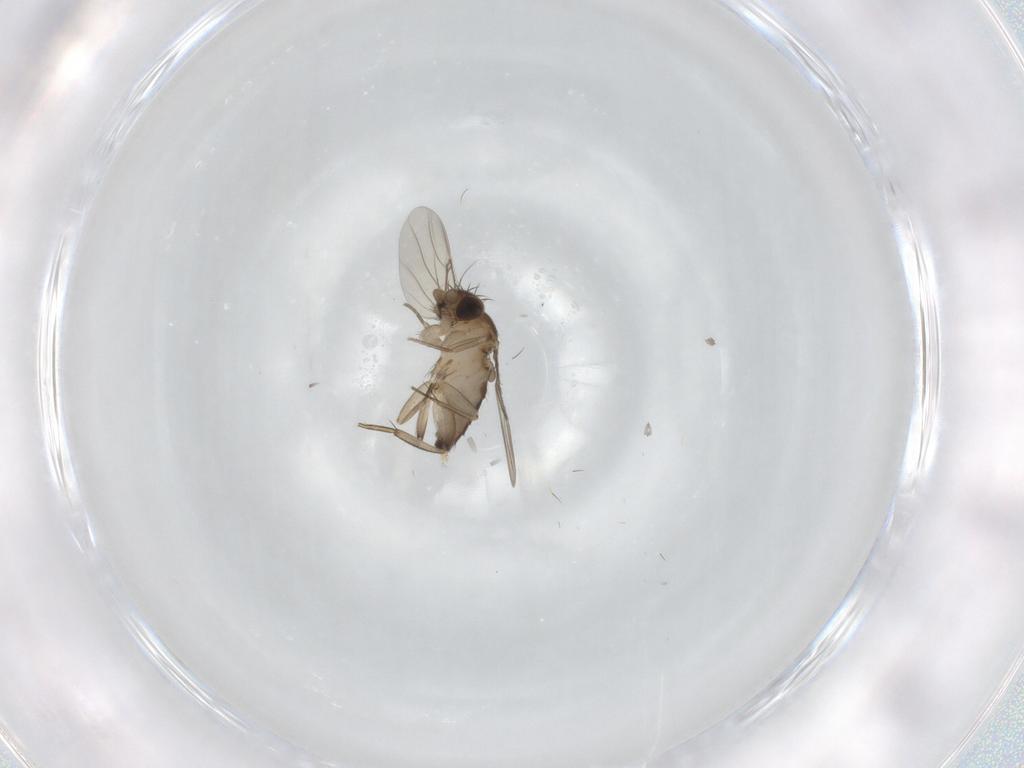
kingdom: Animalia
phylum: Arthropoda
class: Insecta
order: Diptera
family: Phoridae
